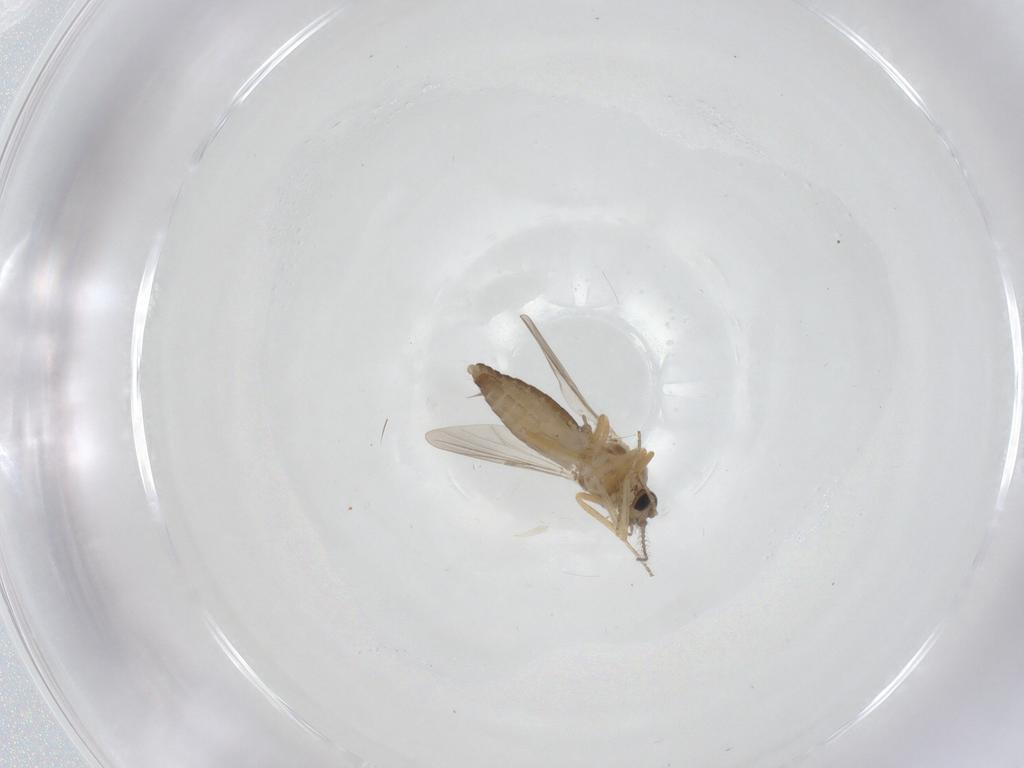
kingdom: Animalia
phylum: Arthropoda
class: Insecta
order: Diptera
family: Ceratopogonidae
